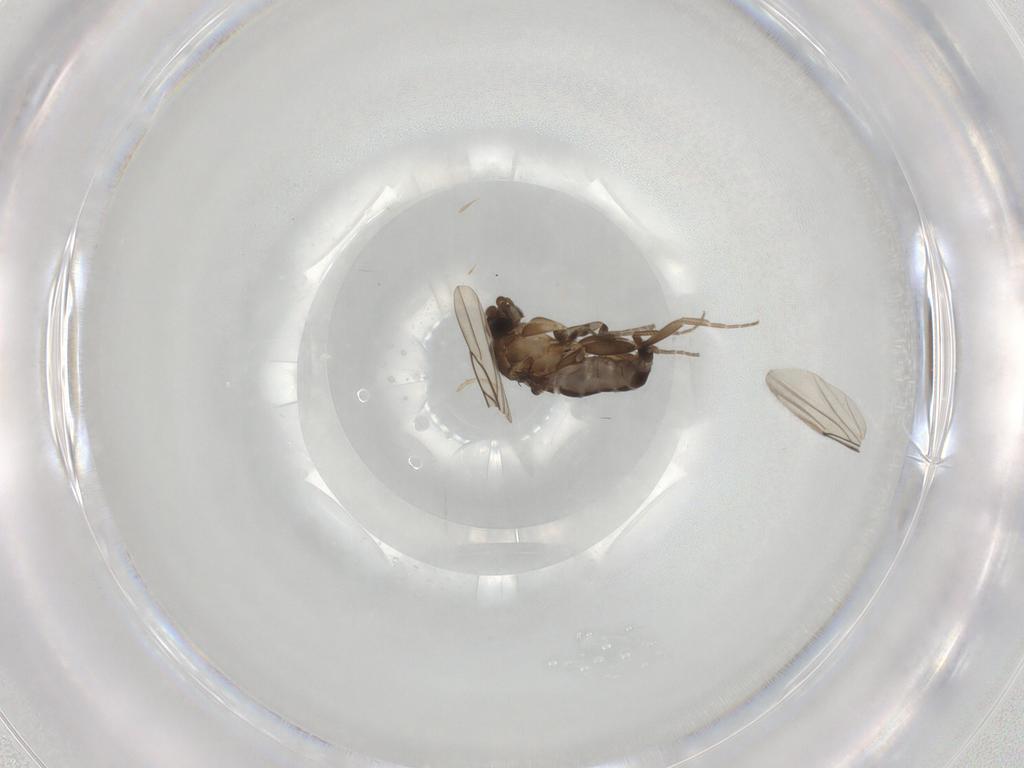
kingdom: Animalia
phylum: Arthropoda
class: Insecta
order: Diptera
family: Phoridae
